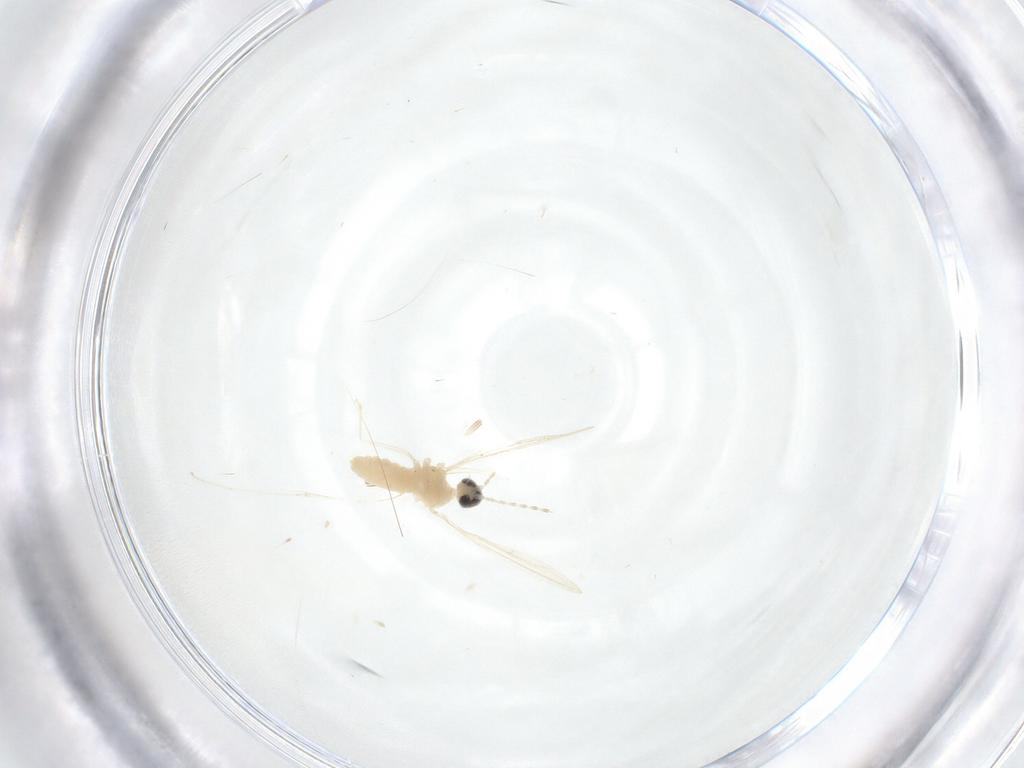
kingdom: Animalia
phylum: Arthropoda
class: Insecta
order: Diptera
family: Cecidomyiidae
